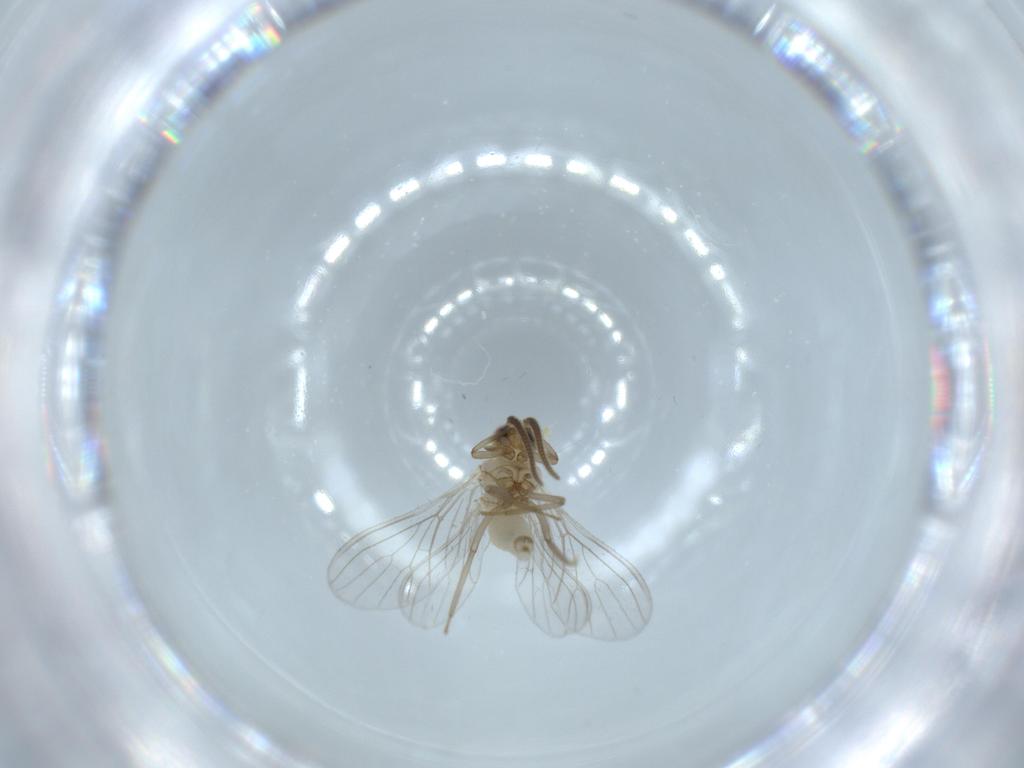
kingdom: Animalia
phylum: Arthropoda
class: Insecta
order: Neuroptera
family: Coniopterygidae
